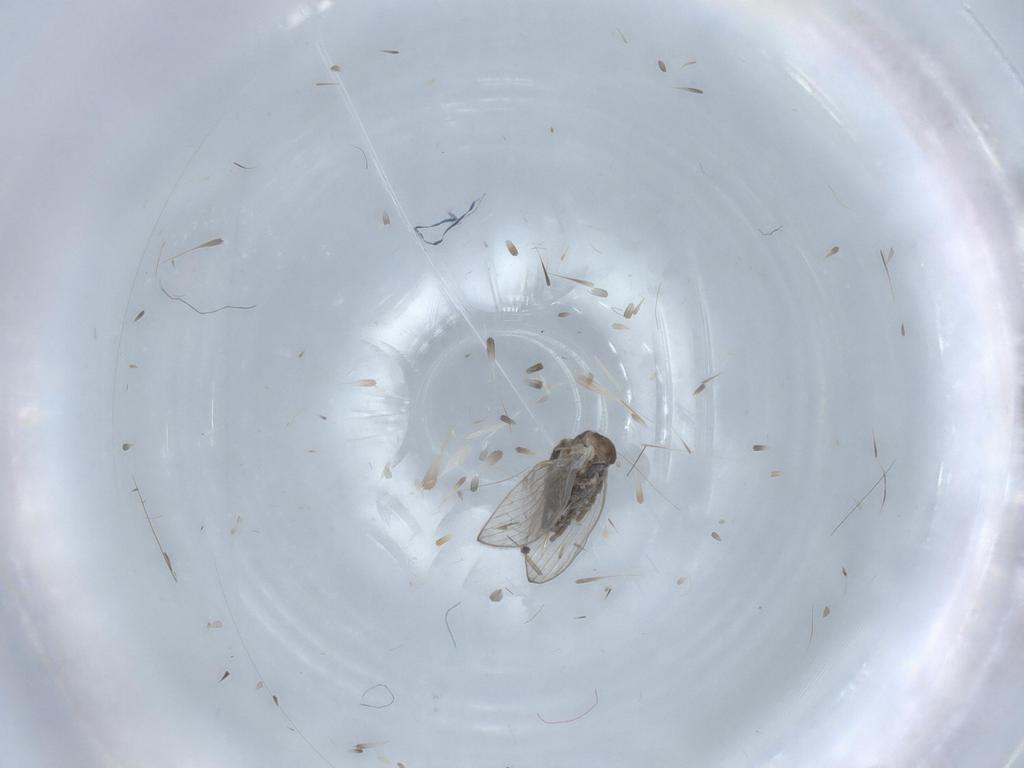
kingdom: Animalia
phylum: Arthropoda
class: Insecta
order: Diptera
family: Psychodidae
